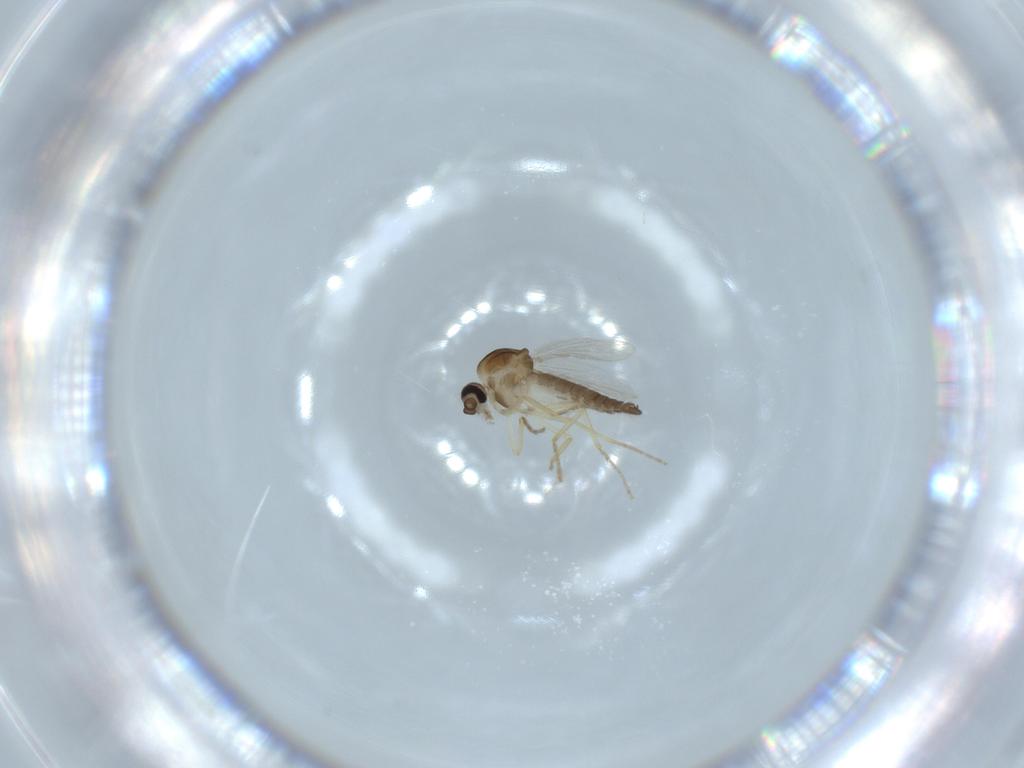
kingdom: Animalia
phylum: Arthropoda
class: Insecta
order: Diptera
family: Ceratopogonidae
